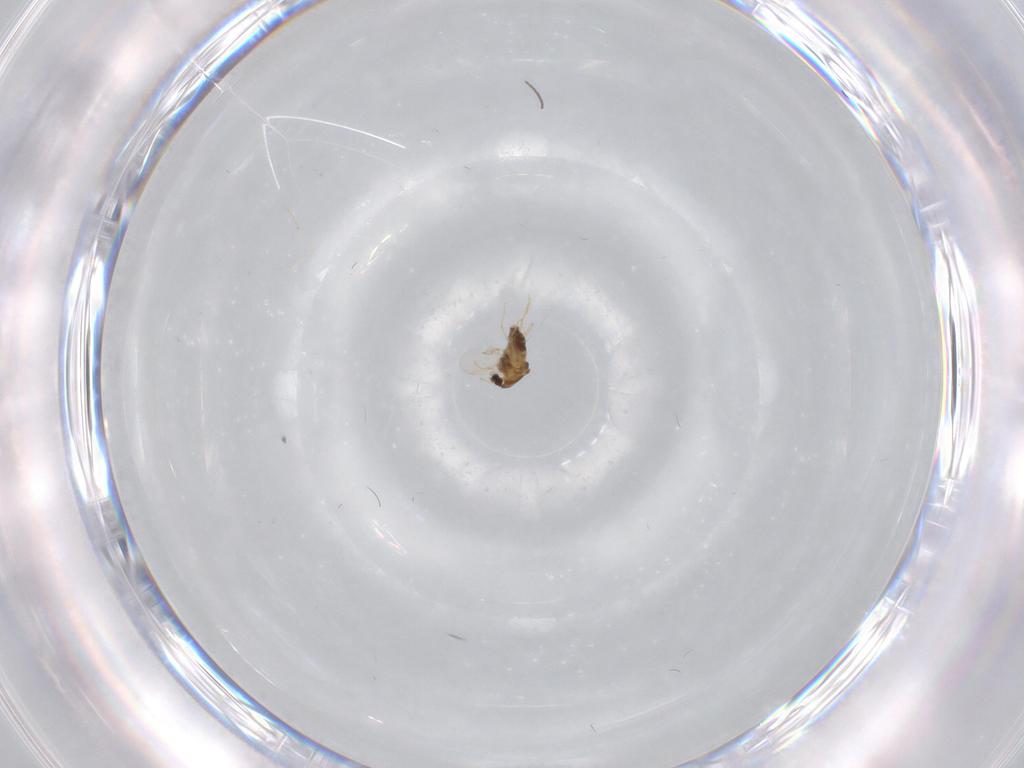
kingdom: Animalia
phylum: Arthropoda
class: Insecta
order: Diptera
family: Chironomidae
